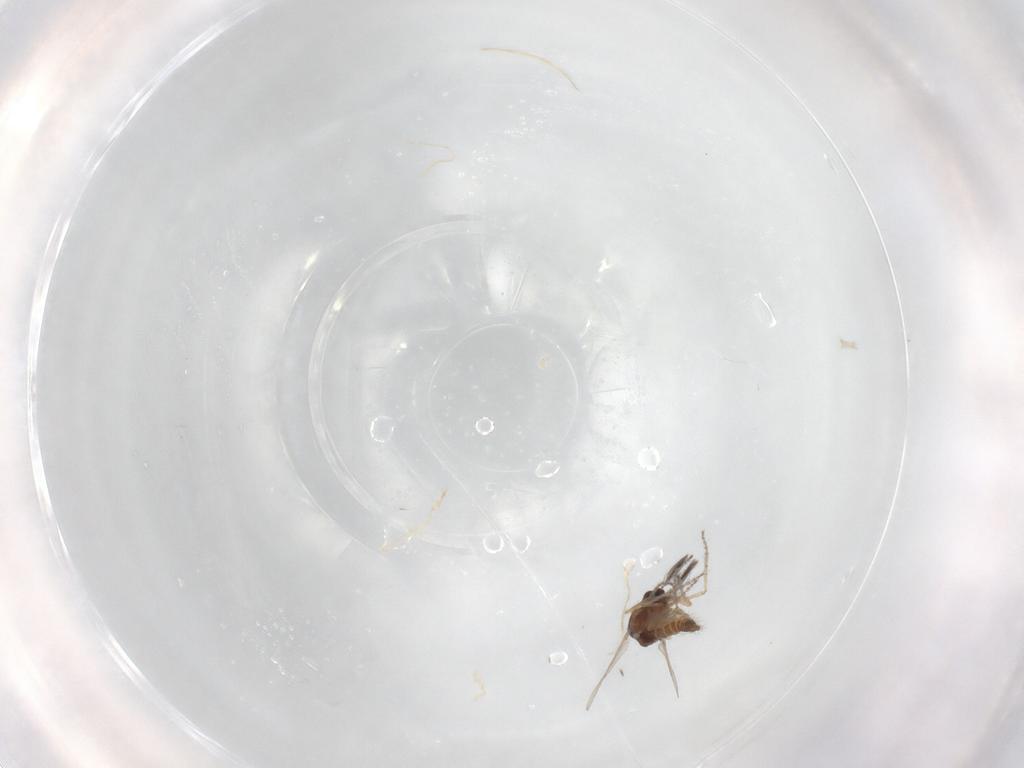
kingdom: Animalia
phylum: Arthropoda
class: Insecta
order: Diptera
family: Ceratopogonidae
